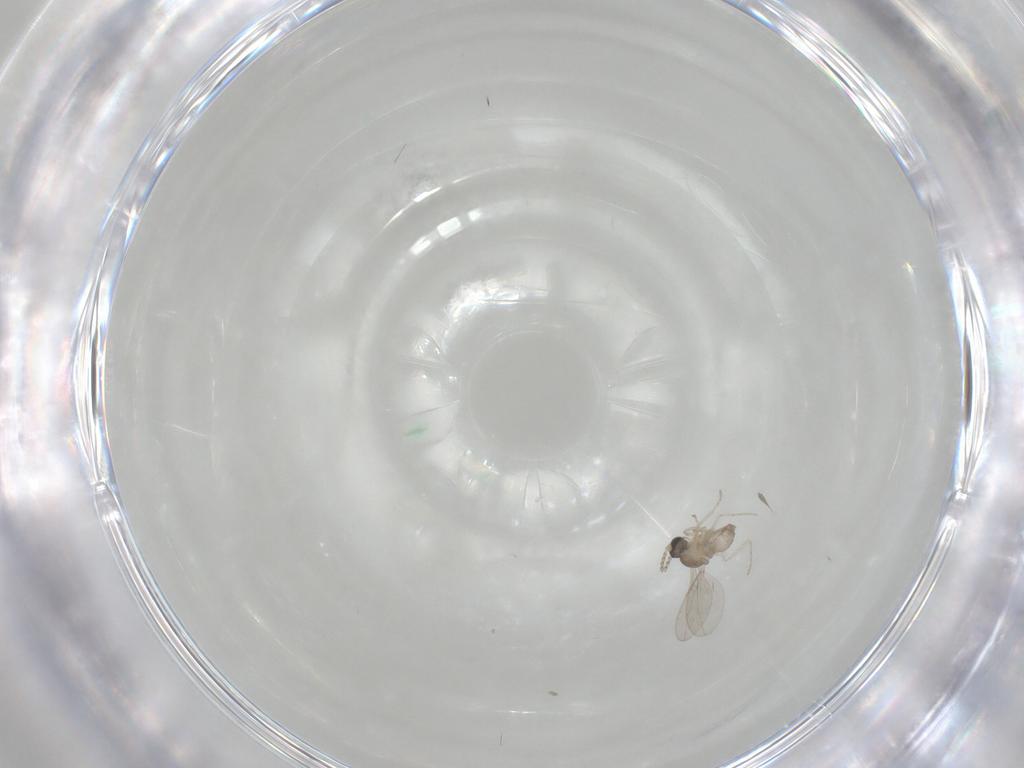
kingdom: Animalia
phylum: Arthropoda
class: Insecta
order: Diptera
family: Cecidomyiidae
